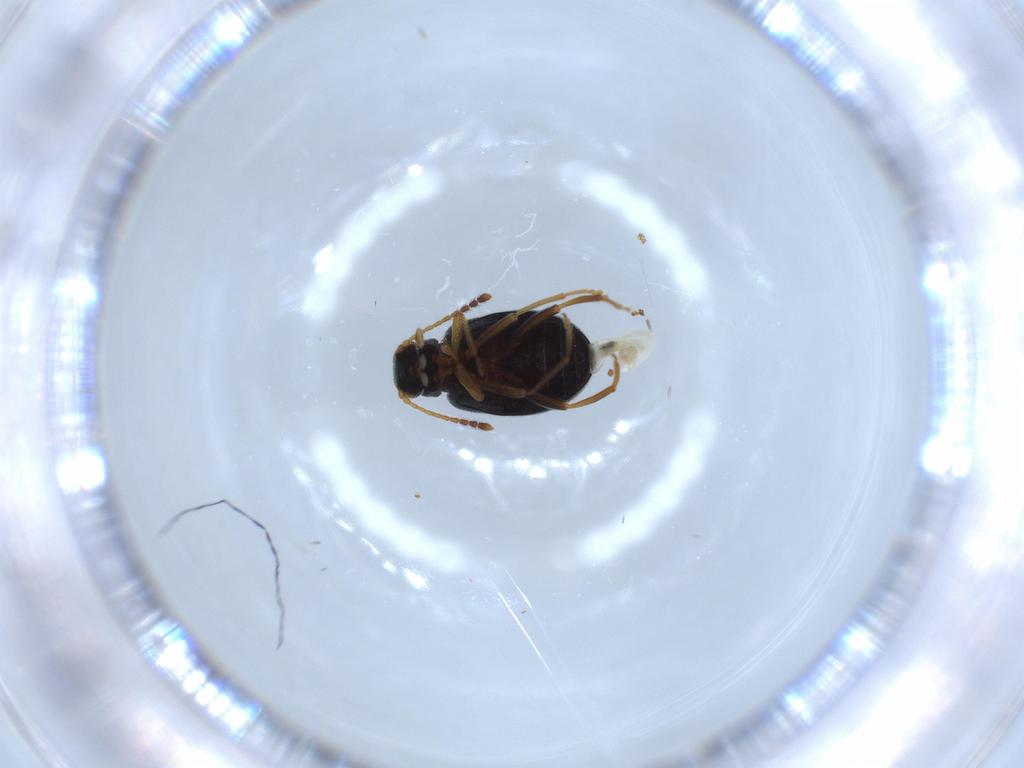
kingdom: Animalia
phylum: Arthropoda
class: Insecta
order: Coleoptera
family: Aderidae
